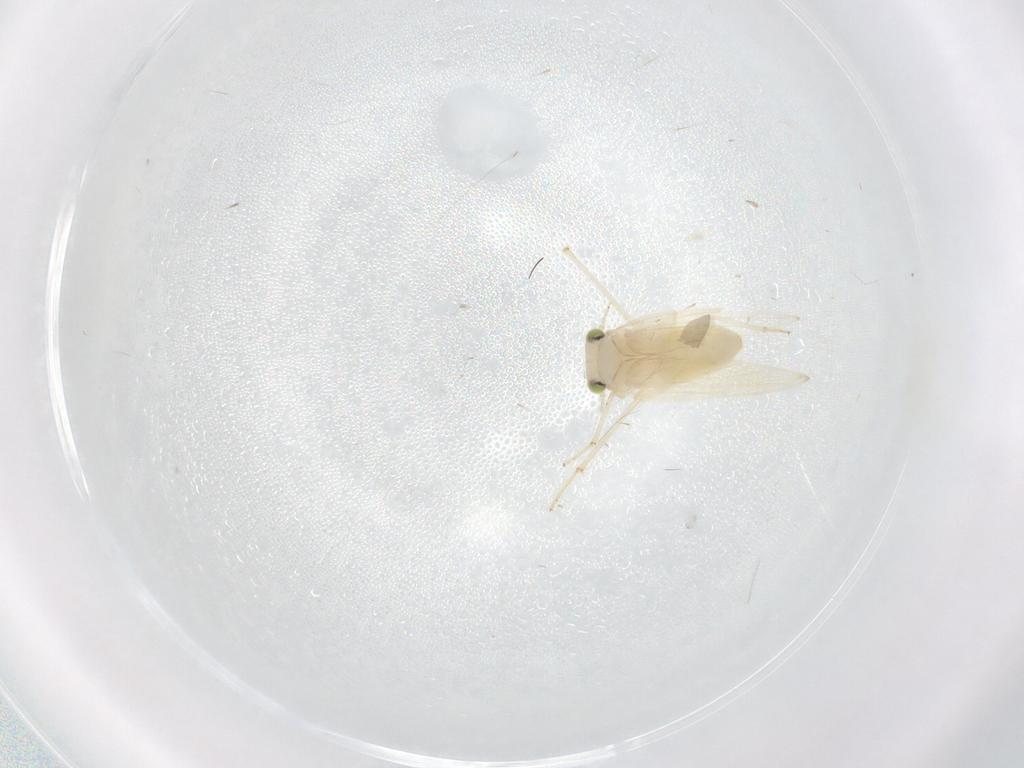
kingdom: Animalia
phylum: Arthropoda
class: Insecta
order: Psocodea
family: Lepidopsocidae
